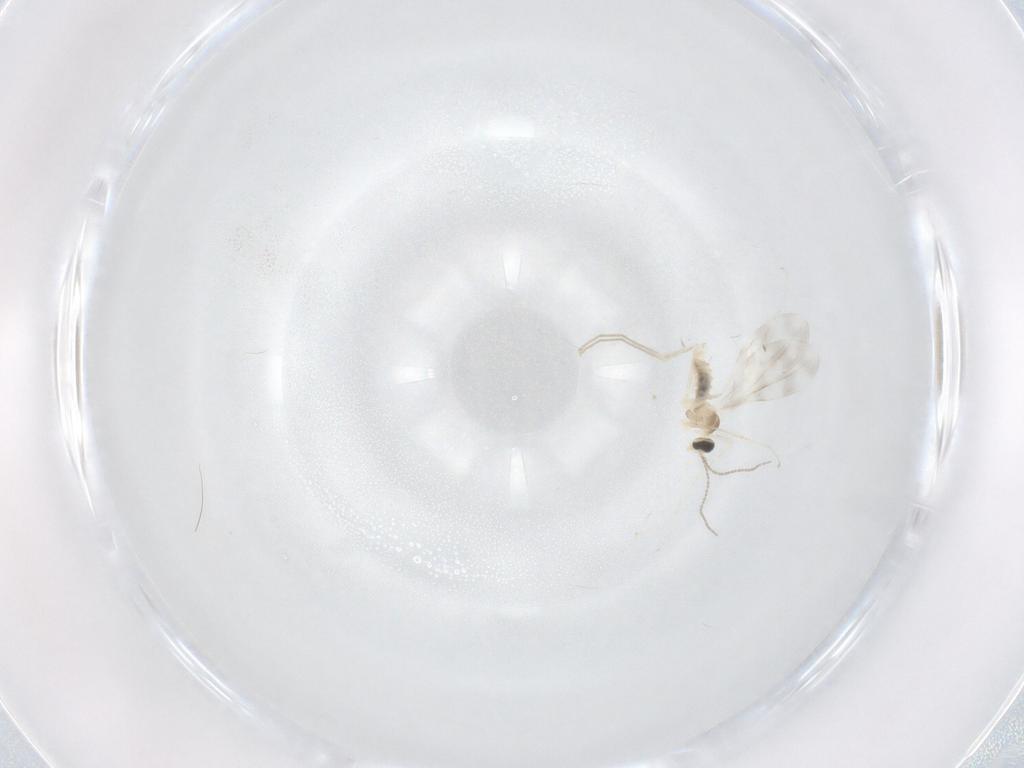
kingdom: Animalia
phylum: Arthropoda
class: Insecta
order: Diptera
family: Cecidomyiidae
